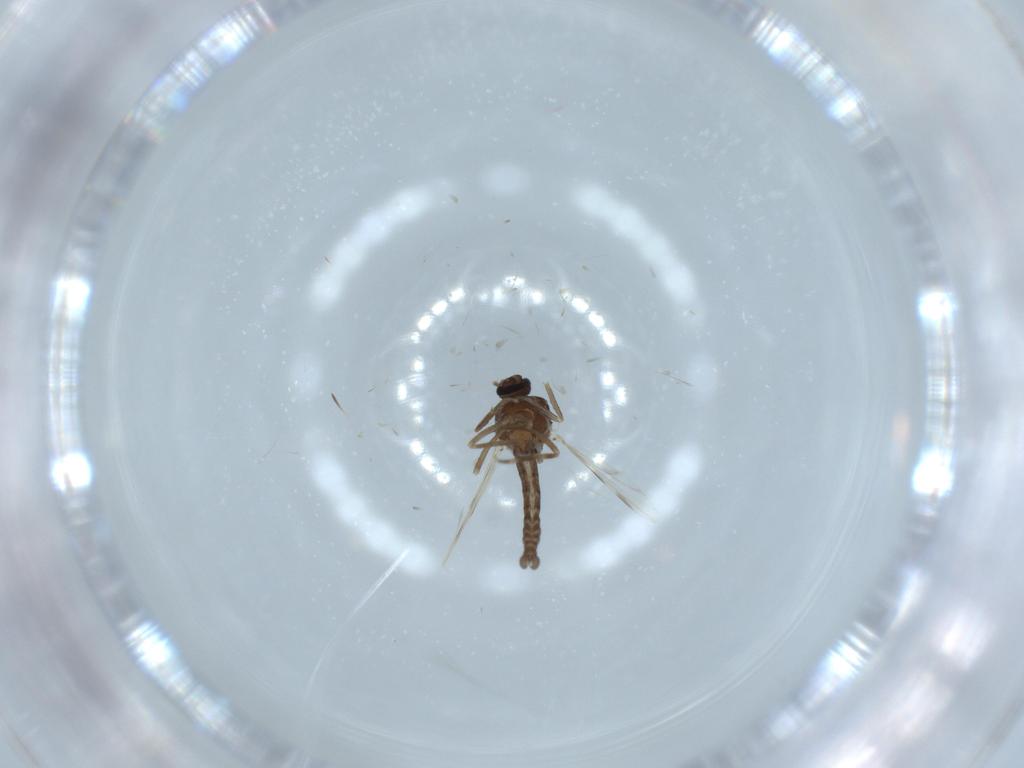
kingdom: Animalia
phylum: Arthropoda
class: Insecta
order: Diptera
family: Ceratopogonidae
